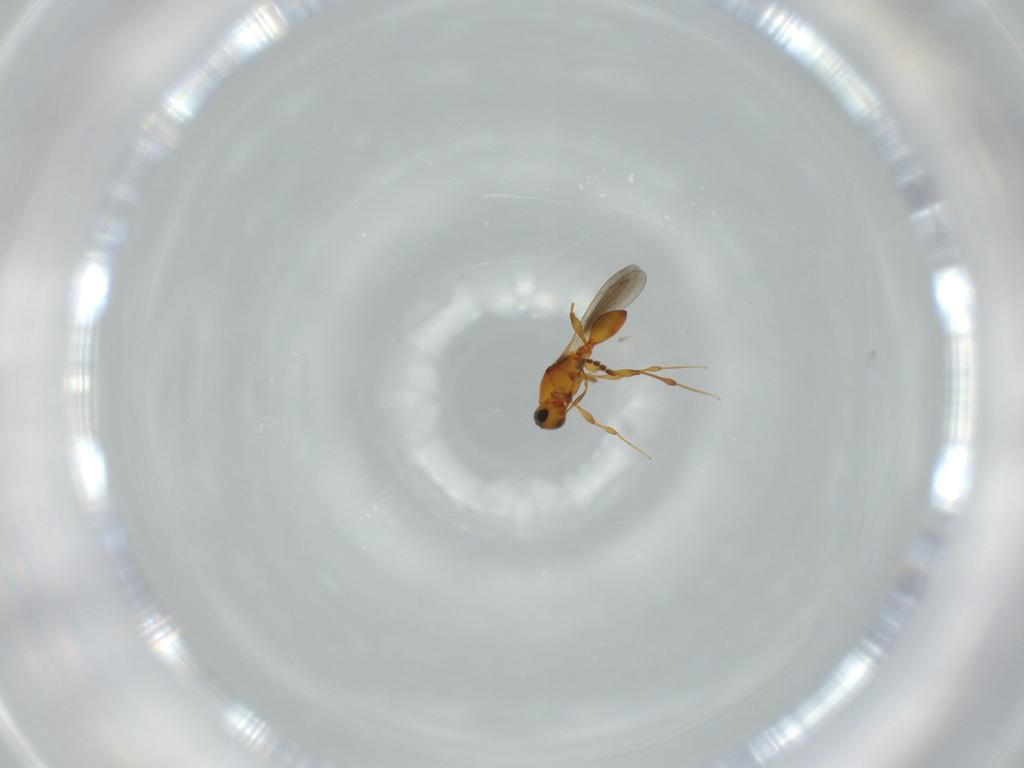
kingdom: Animalia
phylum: Arthropoda
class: Insecta
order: Hymenoptera
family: Platygastridae
